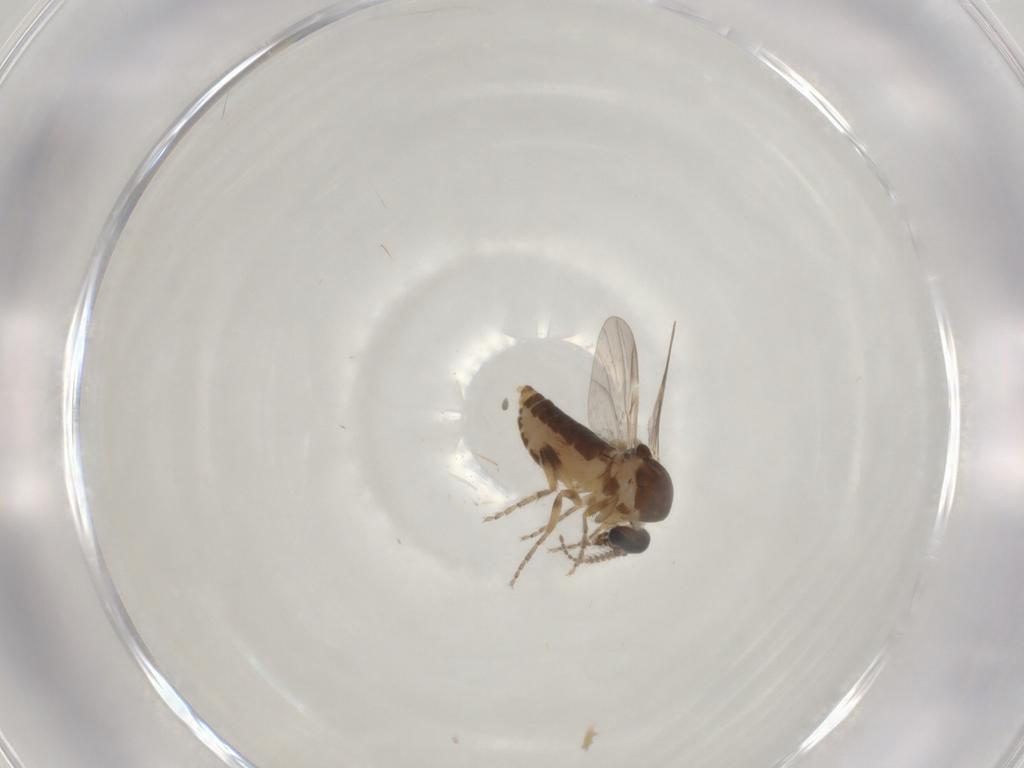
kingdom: Animalia
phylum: Arthropoda
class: Insecta
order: Diptera
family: Ceratopogonidae
